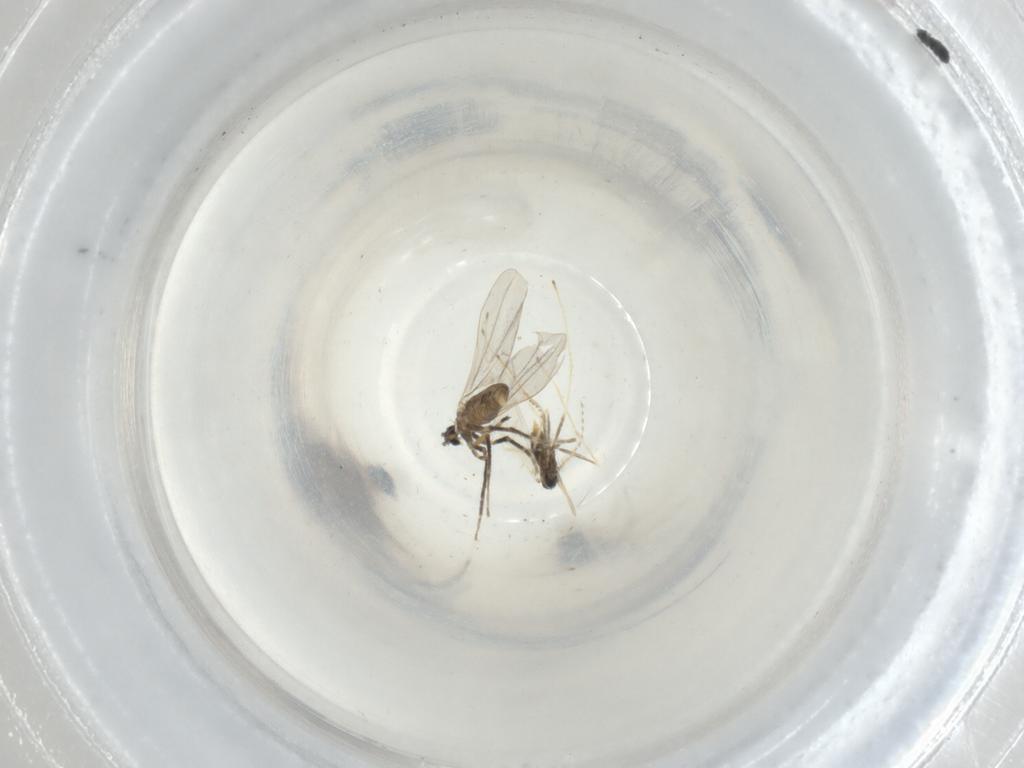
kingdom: Animalia
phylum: Arthropoda
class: Insecta
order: Diptera
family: Cecidomyiidae
